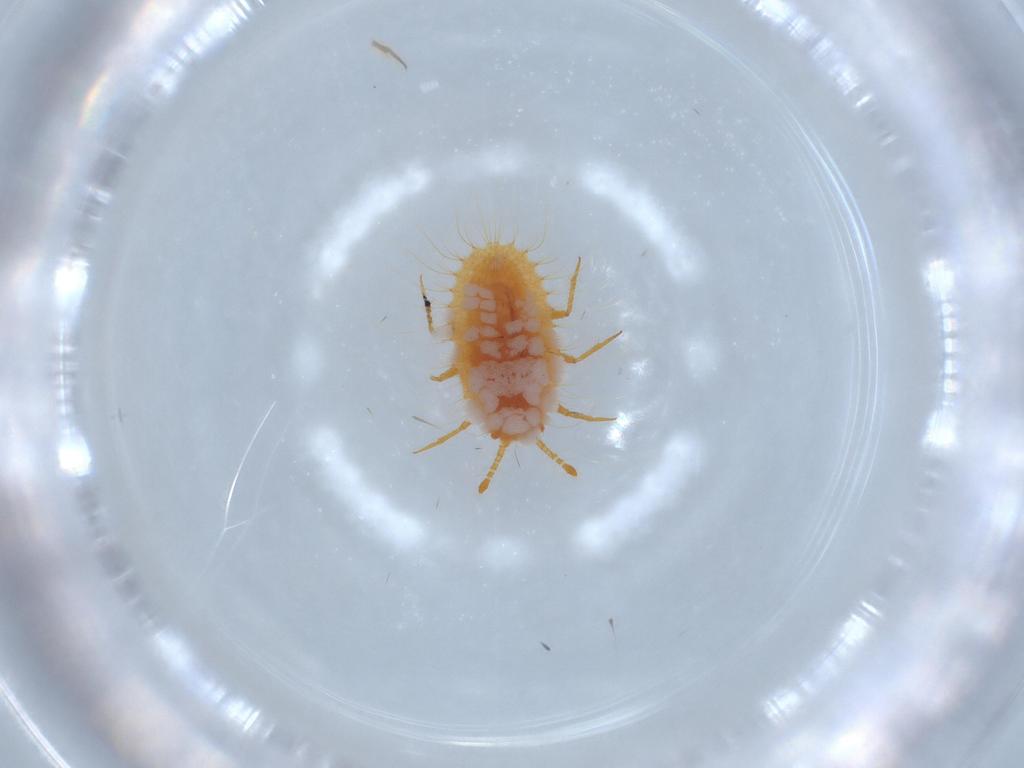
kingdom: Animalia
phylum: Arthropoda
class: Insecta
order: Hemiptera
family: Coccoidea_incertae_sedis
